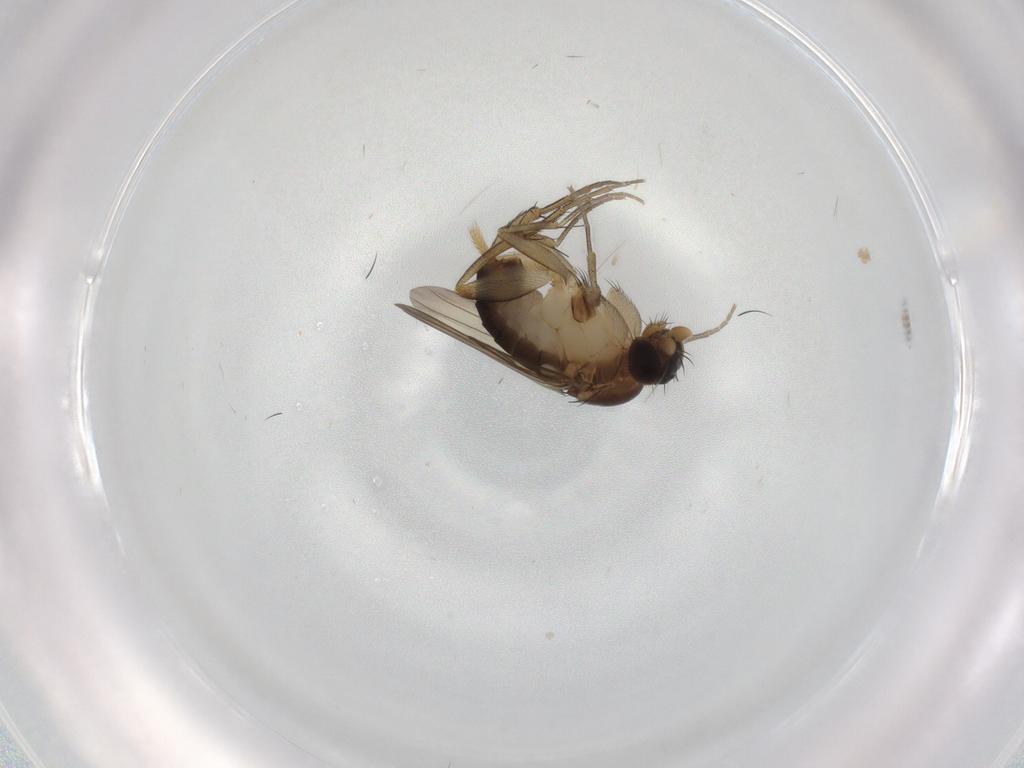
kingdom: Animalia
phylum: Arthropoda
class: Insecta
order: Diptera
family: Phoridae
